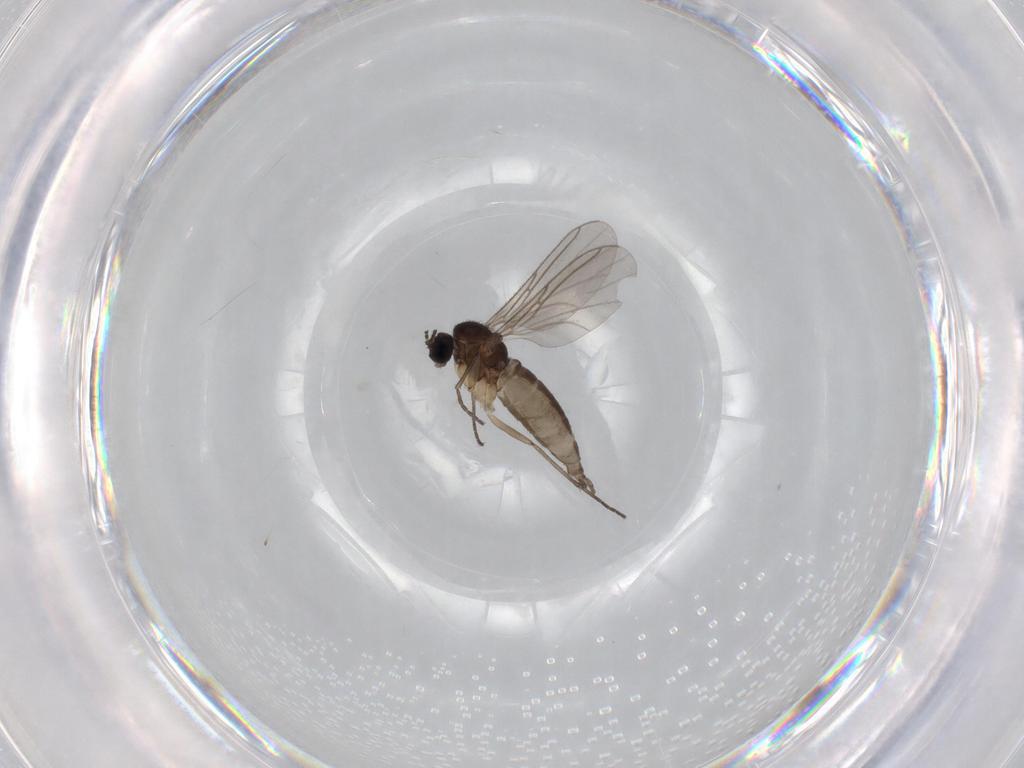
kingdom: Animalia
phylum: Arthropoda
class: Insecta
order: Diptera
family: Sciaridae
